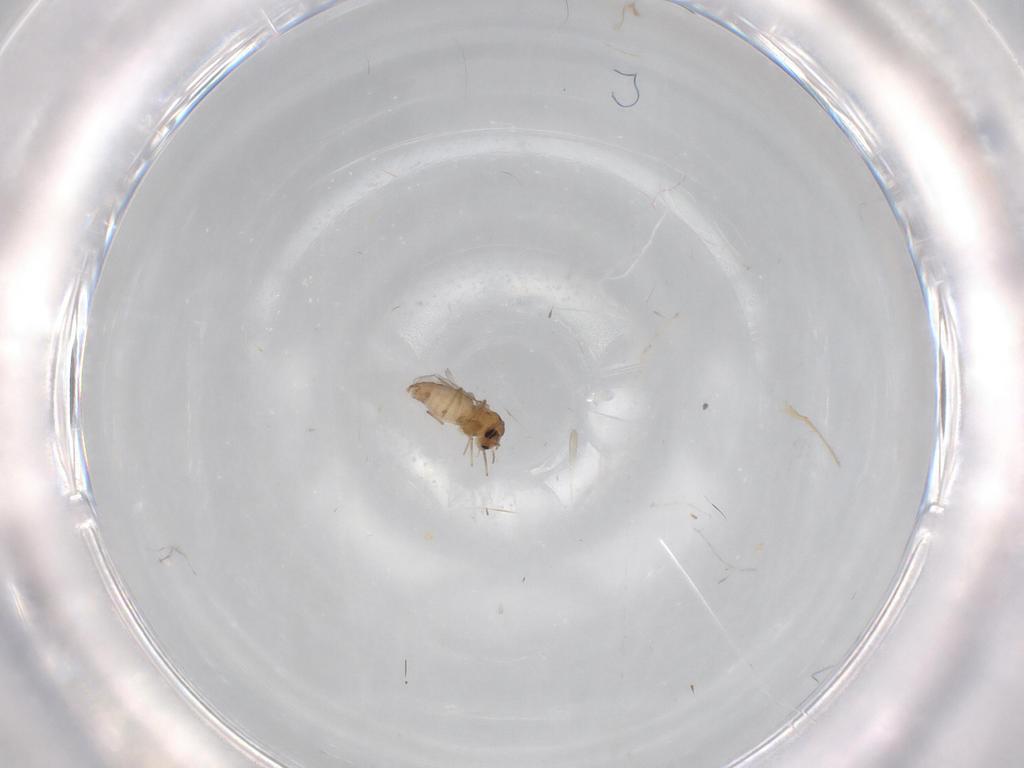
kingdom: Animalia
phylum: Arthropoda
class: Insecta
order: Diptera
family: Chironomidae
